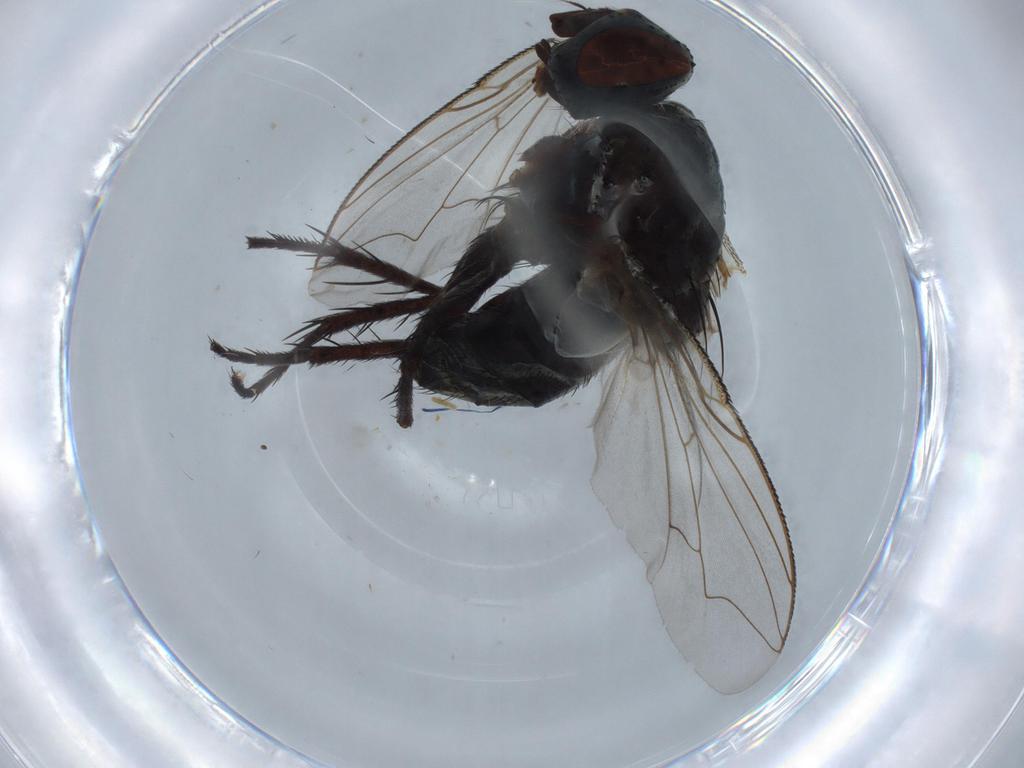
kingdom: Animalia
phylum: Arthropoda
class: Insecta
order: Diptera
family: Sarcophagidae
